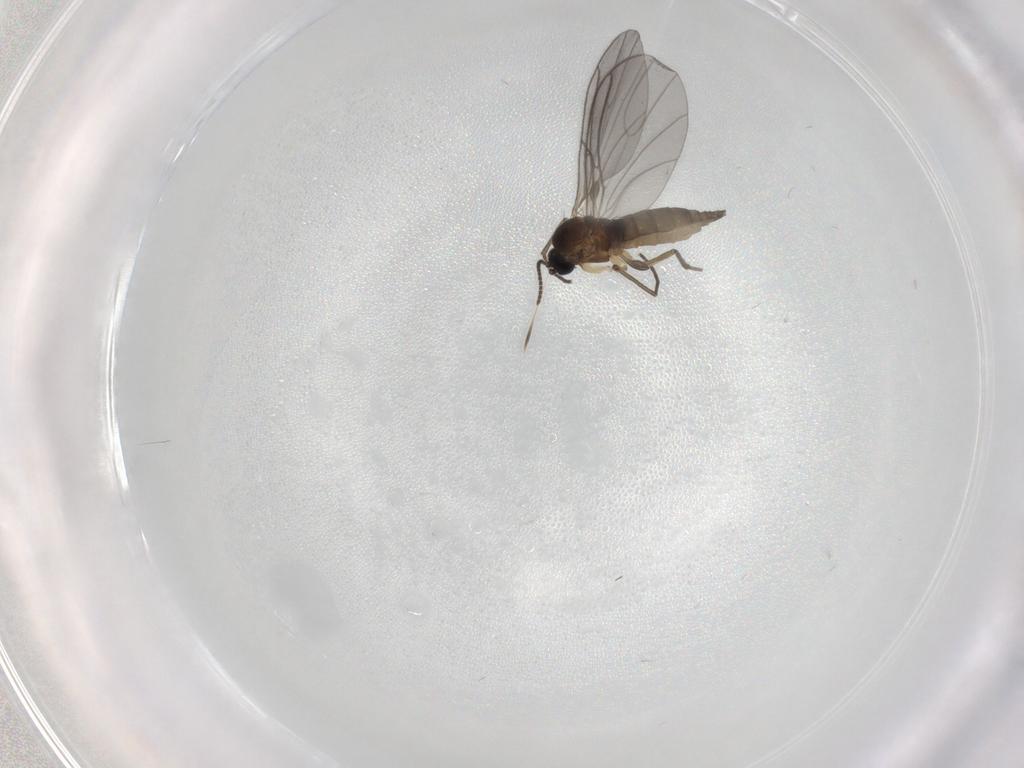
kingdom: Animalia
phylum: Arthropoda
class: Insecta
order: Diptera
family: Sciaridae
